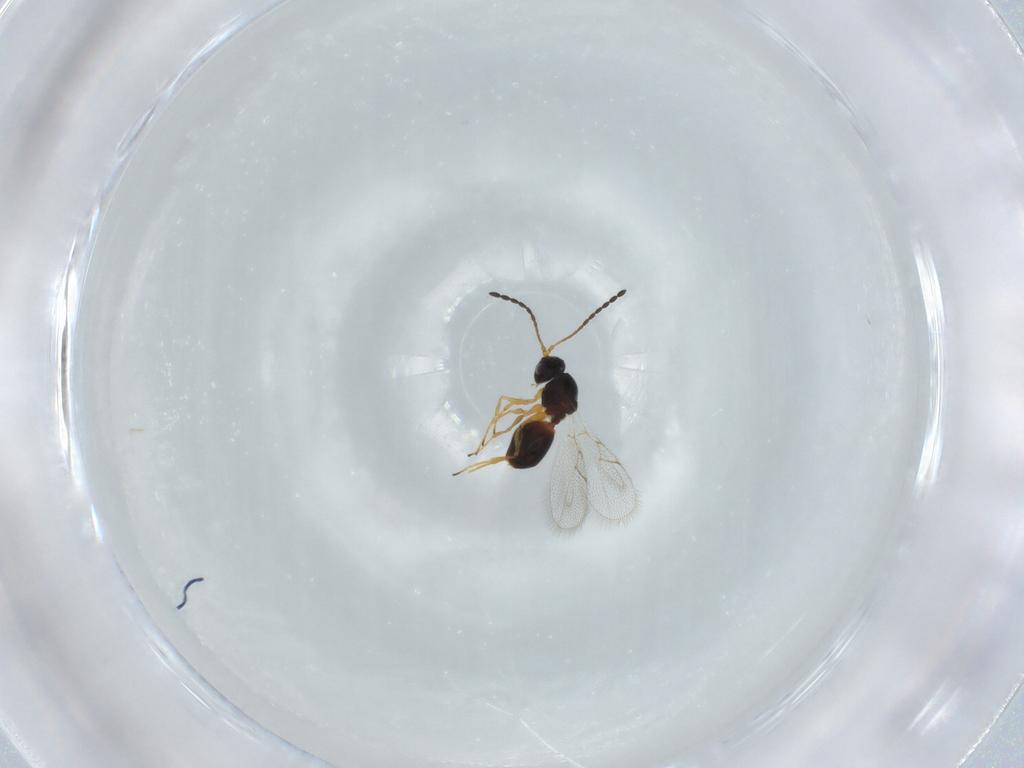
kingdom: Animalia
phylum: Arthropoda
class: Insecta
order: Hymenoptera
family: Figitidae
